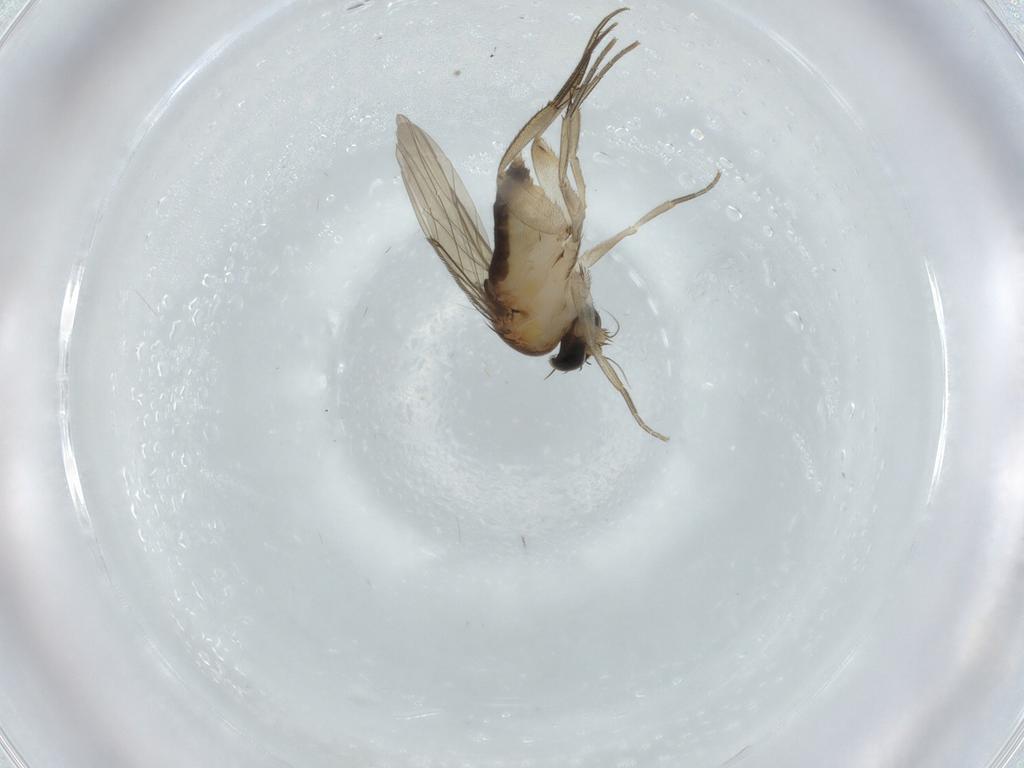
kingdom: Animalia
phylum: Arthropoda
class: Insecta
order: Diptera
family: Phoridae
